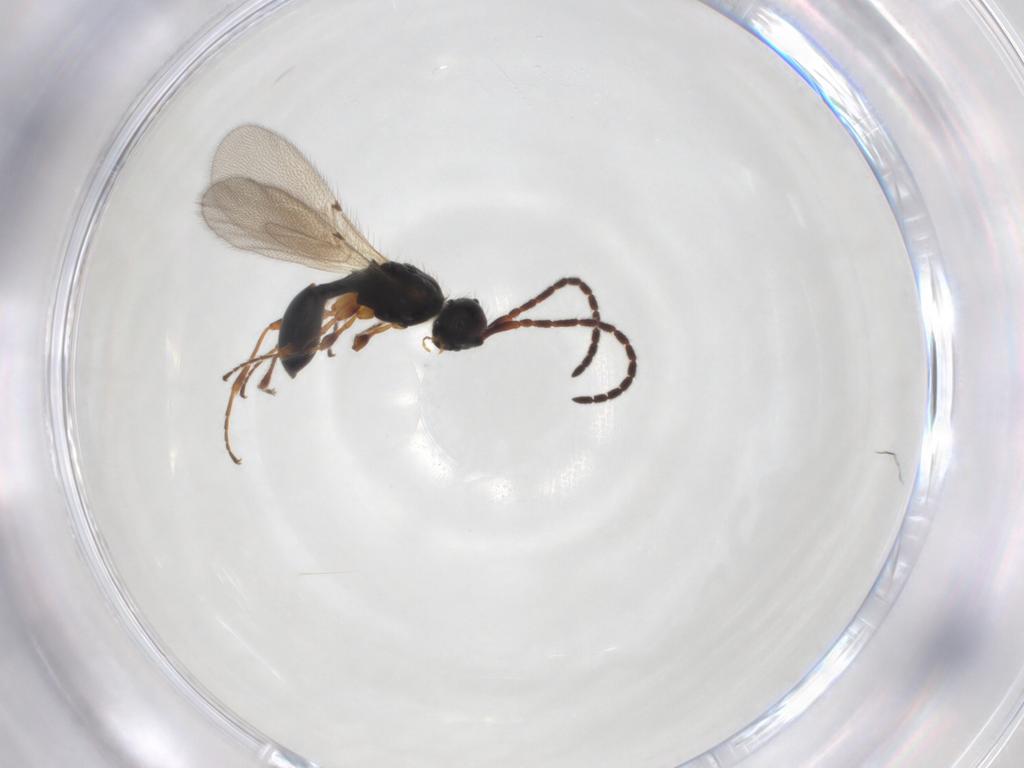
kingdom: Animalia
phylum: Arthropoda
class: Insecta
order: Hymenoptera
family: Diapriidae
